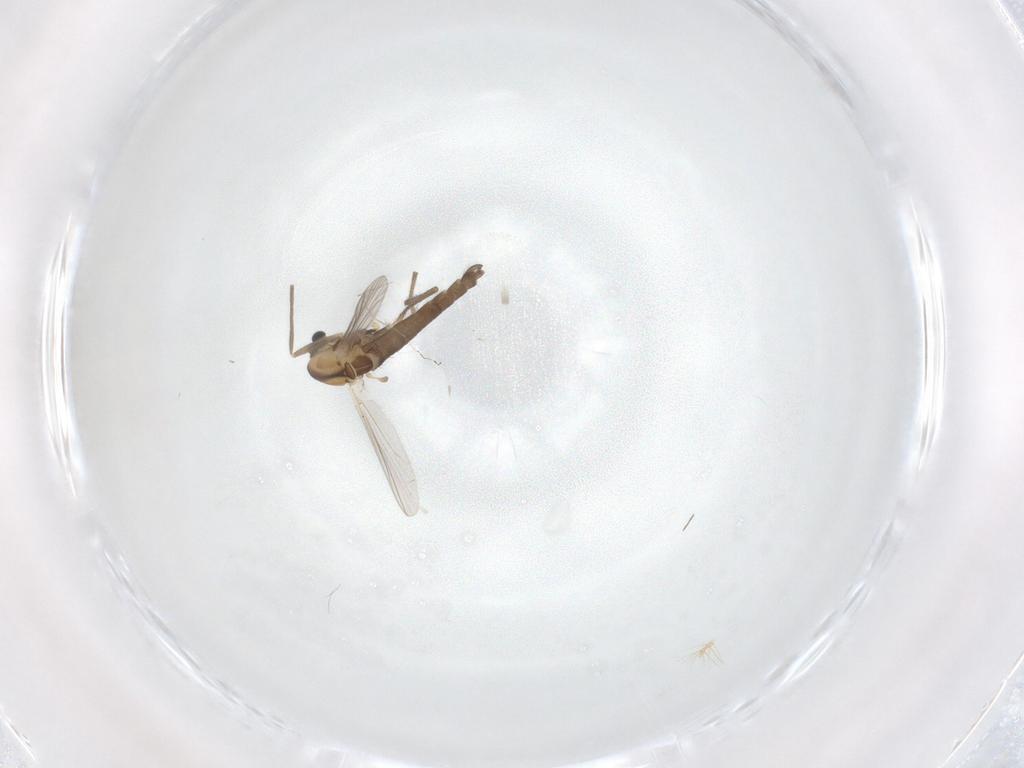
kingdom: Animalia
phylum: Arthropoda
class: Insecta
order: Diptera
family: Chironomidae
